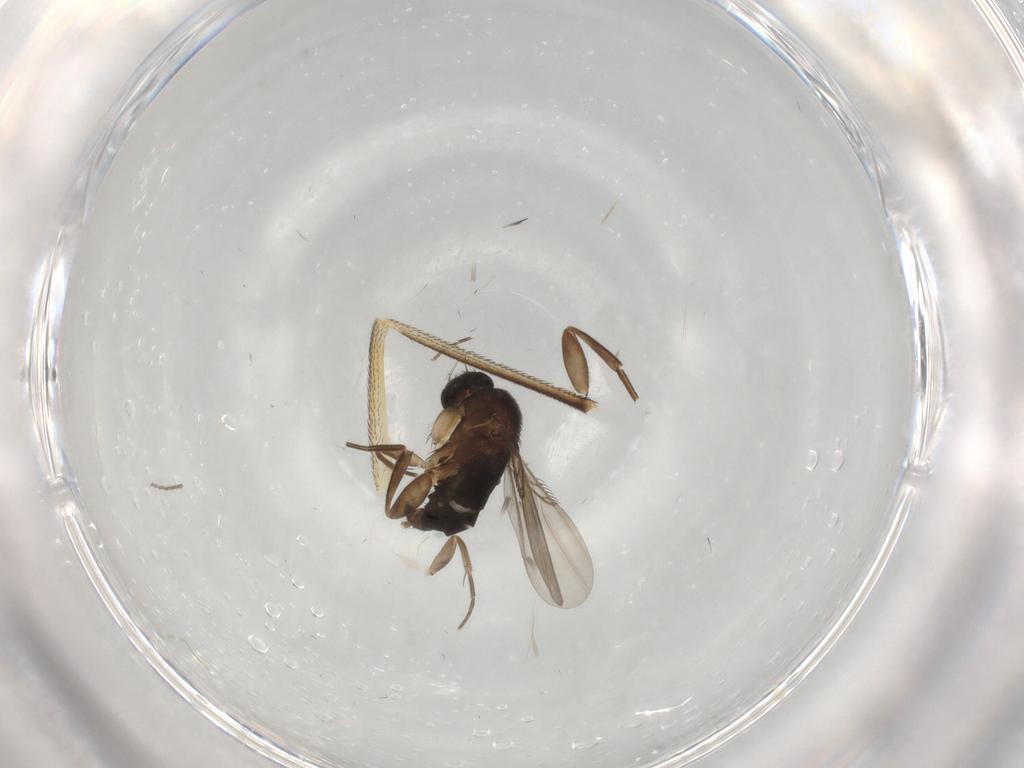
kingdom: Animalia
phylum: Arthropoda
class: Insecta
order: Diptera
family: Phoridae
